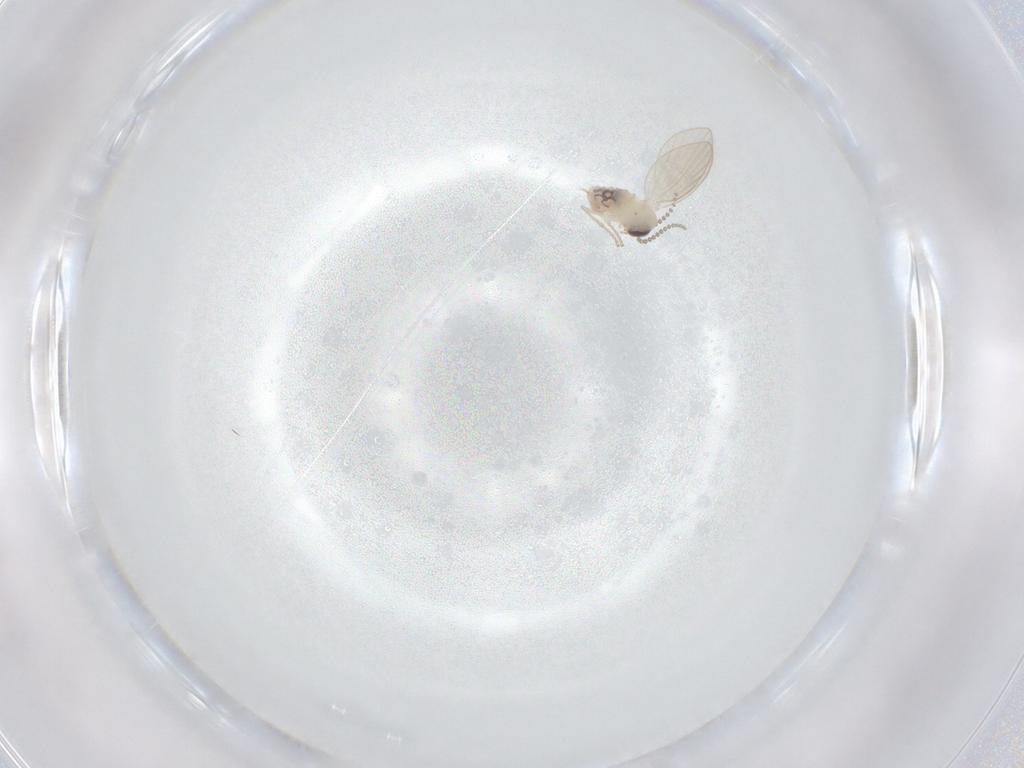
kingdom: Animalia
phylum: Arthropoda
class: Insecta
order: Diptera
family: Psychodidae
